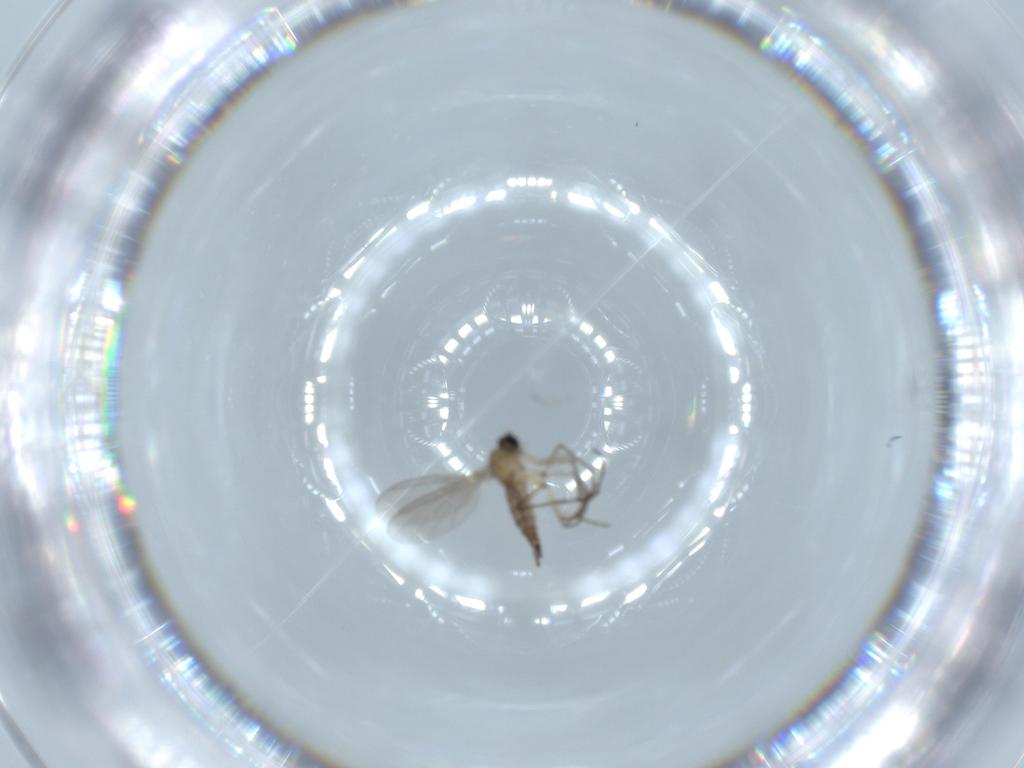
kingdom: Animalia
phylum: Arthropoda
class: Insecta
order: Diptera
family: Sciaridae
